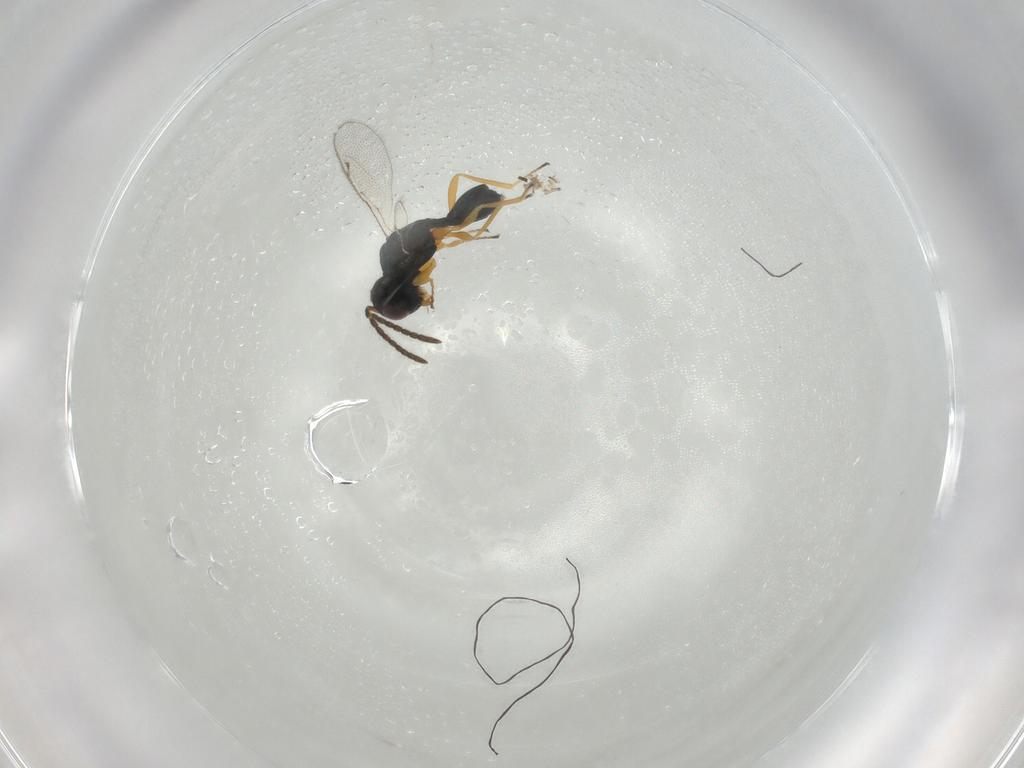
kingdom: Animalia
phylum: Arthropoda
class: Insecta
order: Hymenoptera
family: Pteromalidae
